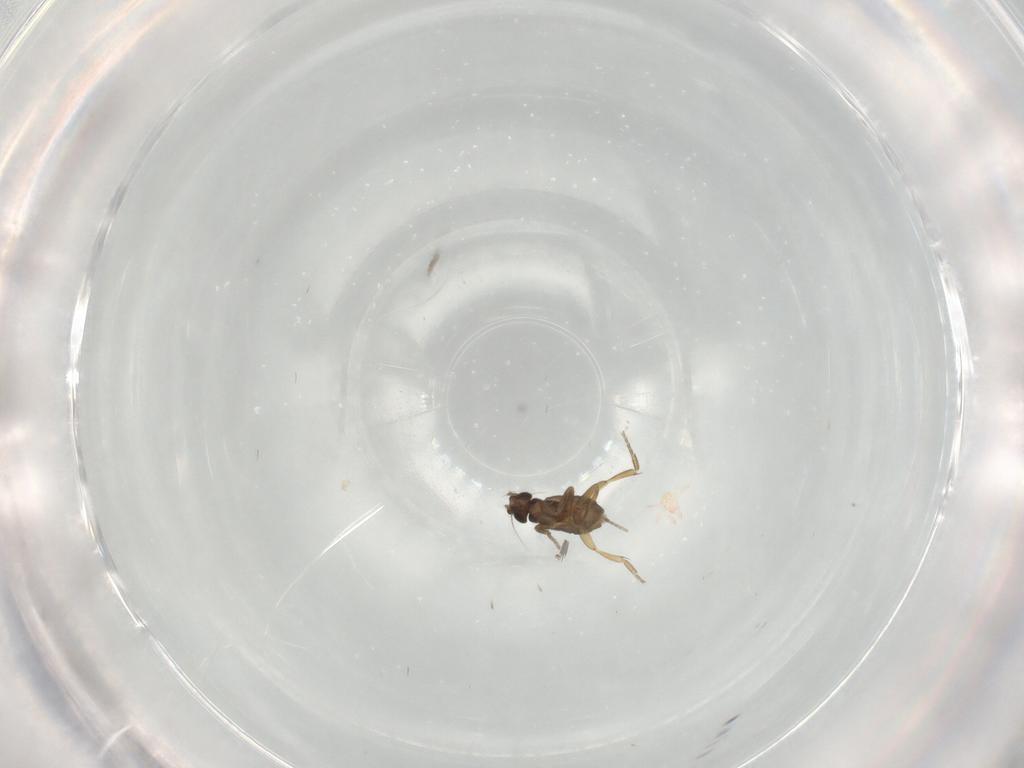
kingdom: Animalia
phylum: Arthropoda
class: Insecta
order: Diptera
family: Phoridae
